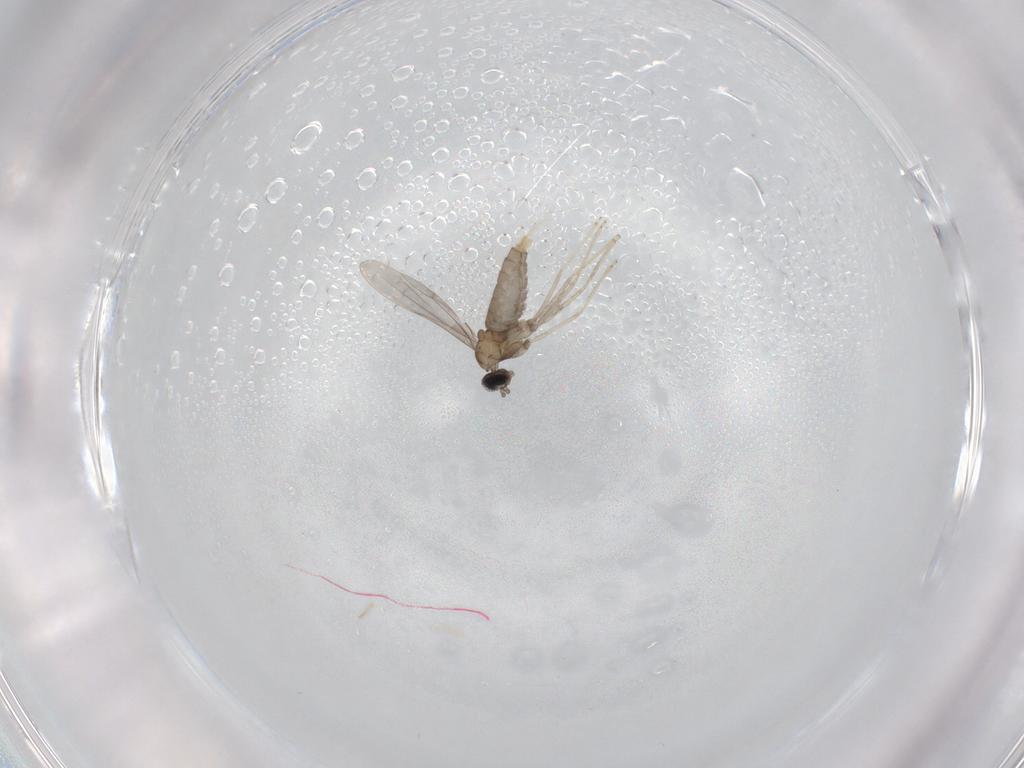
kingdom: Animalia
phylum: Arthropoda
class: Insecta
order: Diptera
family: Cecidomyiidae
